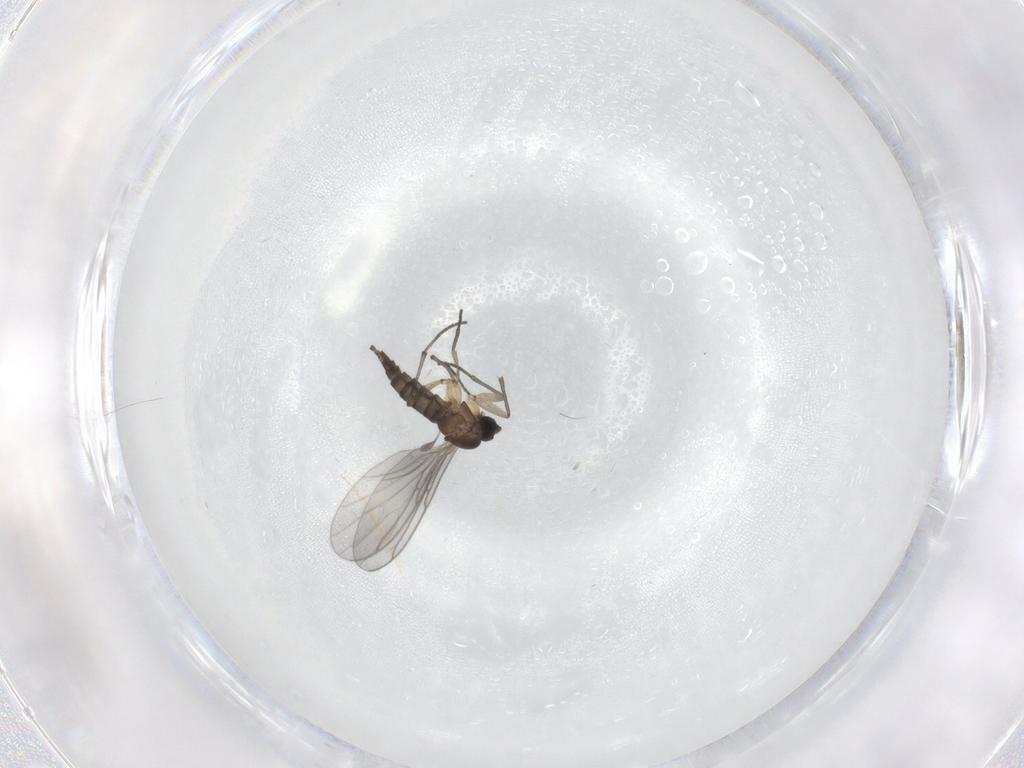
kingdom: Animalia
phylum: Arthropoda
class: Insecta
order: Diptera
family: Sciaridae
